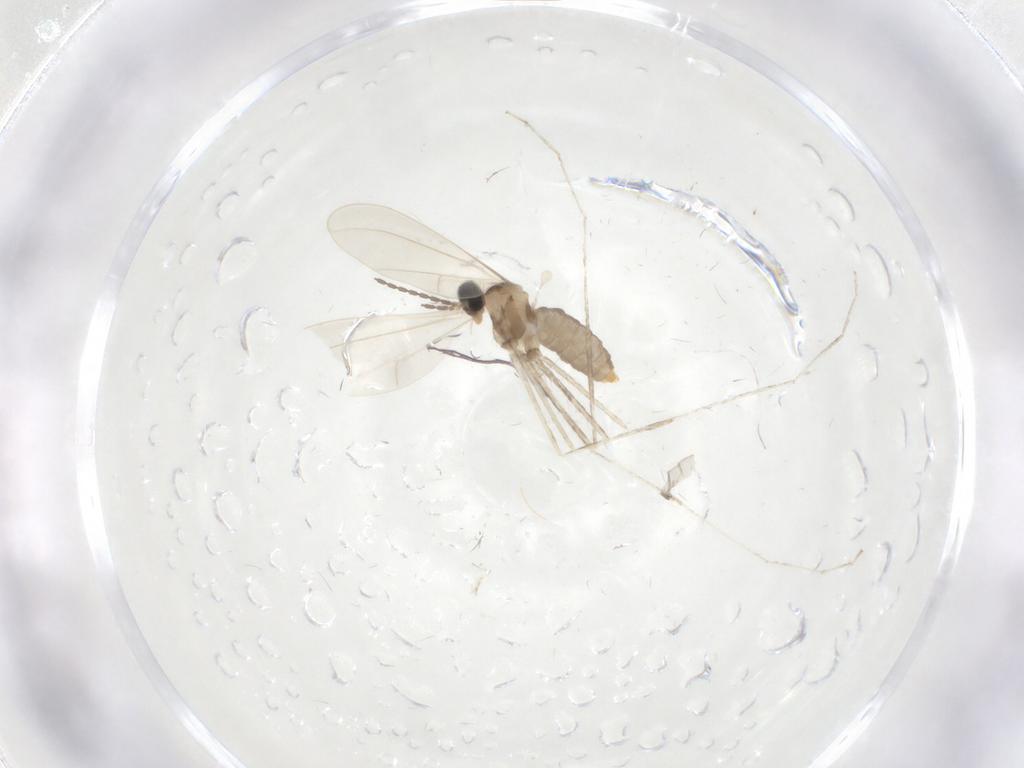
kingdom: Animalia
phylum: Arthropoda
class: Insecta
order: Diptera
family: Cecidomyiidae
